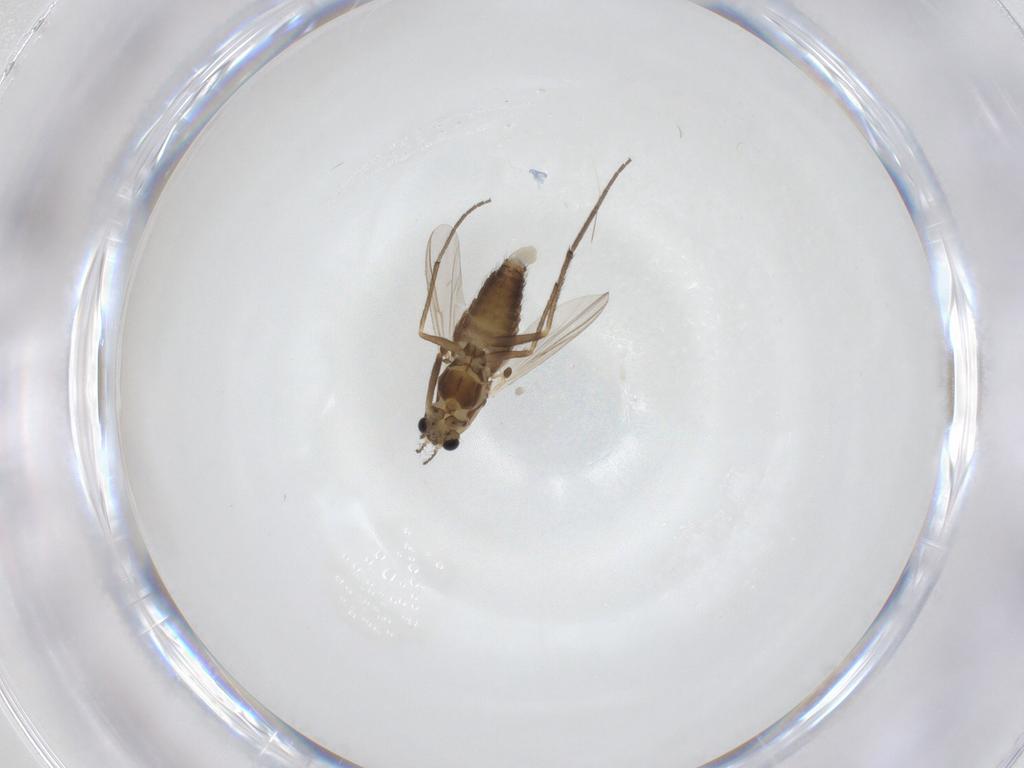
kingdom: Animalia
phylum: Arthropoda
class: Insecta
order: Diptera
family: Chironomidae
